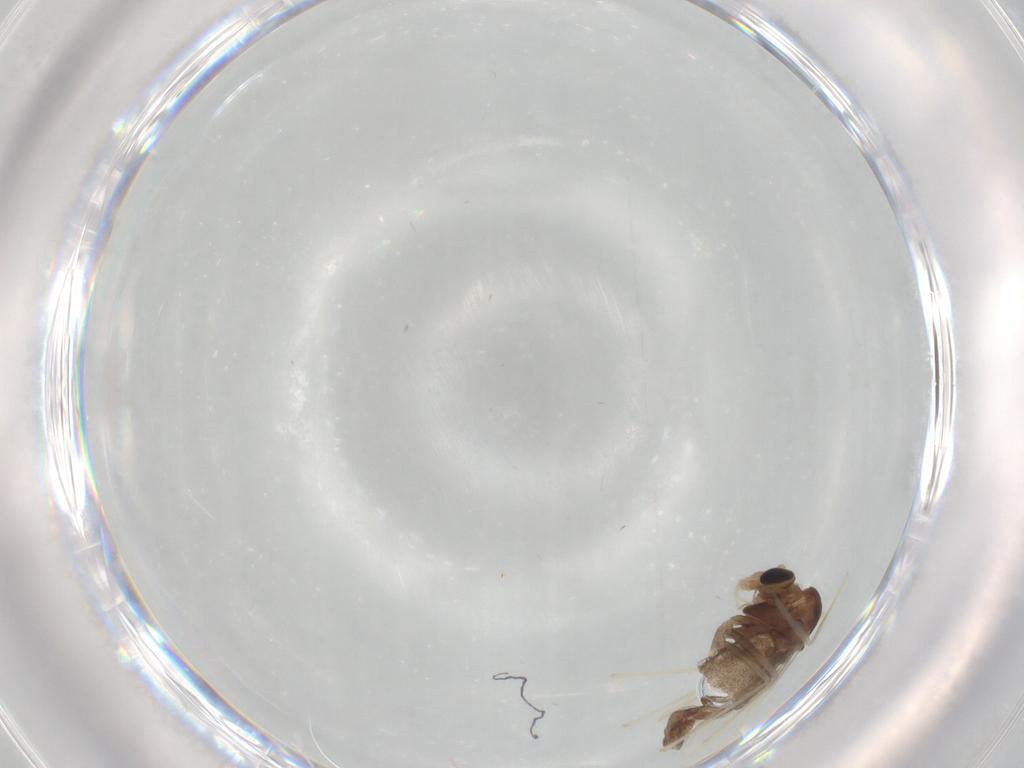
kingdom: Animalia
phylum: Arthropoda
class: Insecta
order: Diptera
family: Chironomidae
